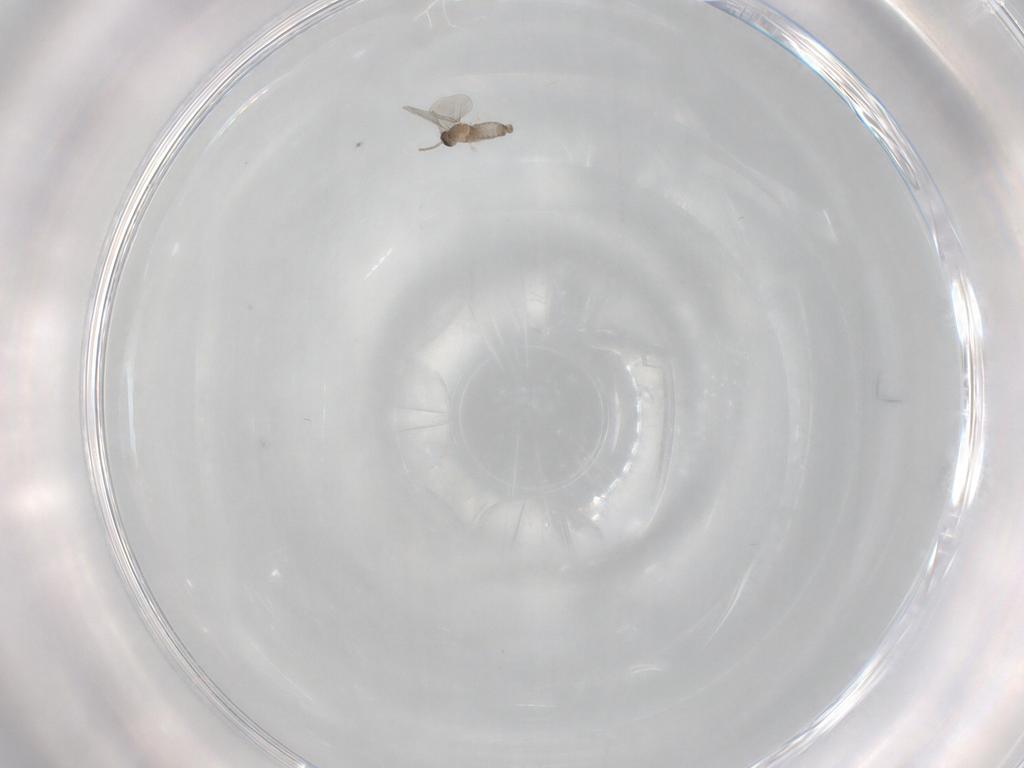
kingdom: Animalia
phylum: Arthropoda
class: Insecta
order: Diptera
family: Cecidomyiidae
